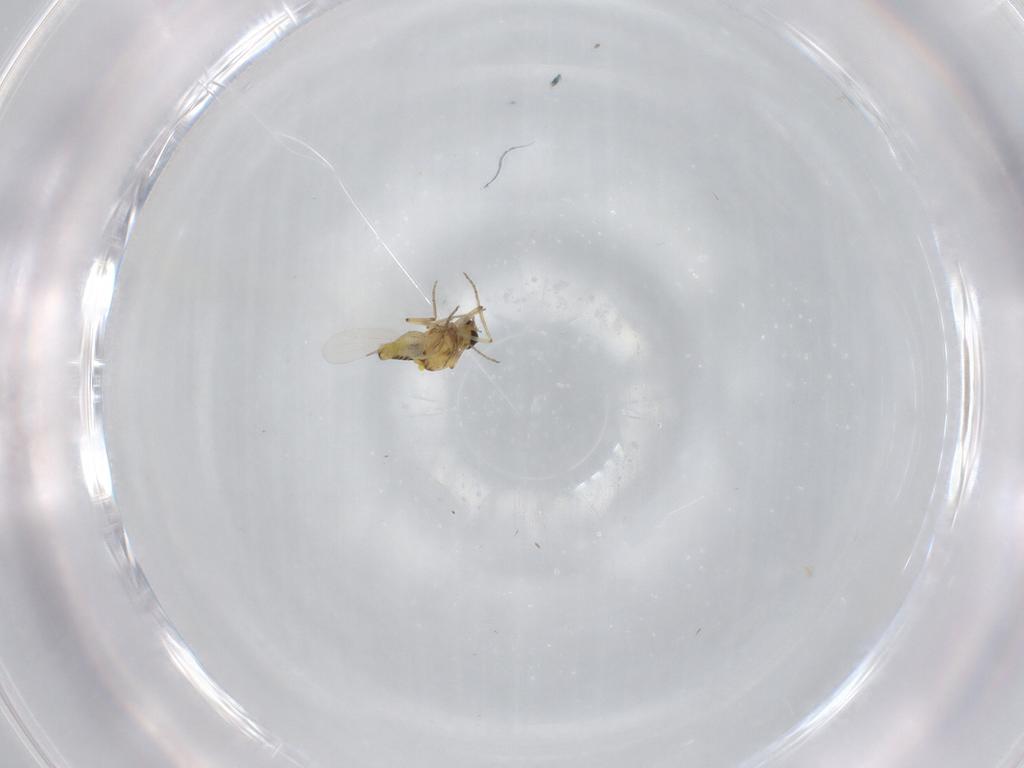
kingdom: Animalia
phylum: Arthropoda
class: Insecta
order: Diptera
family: Ceratopogonidae
